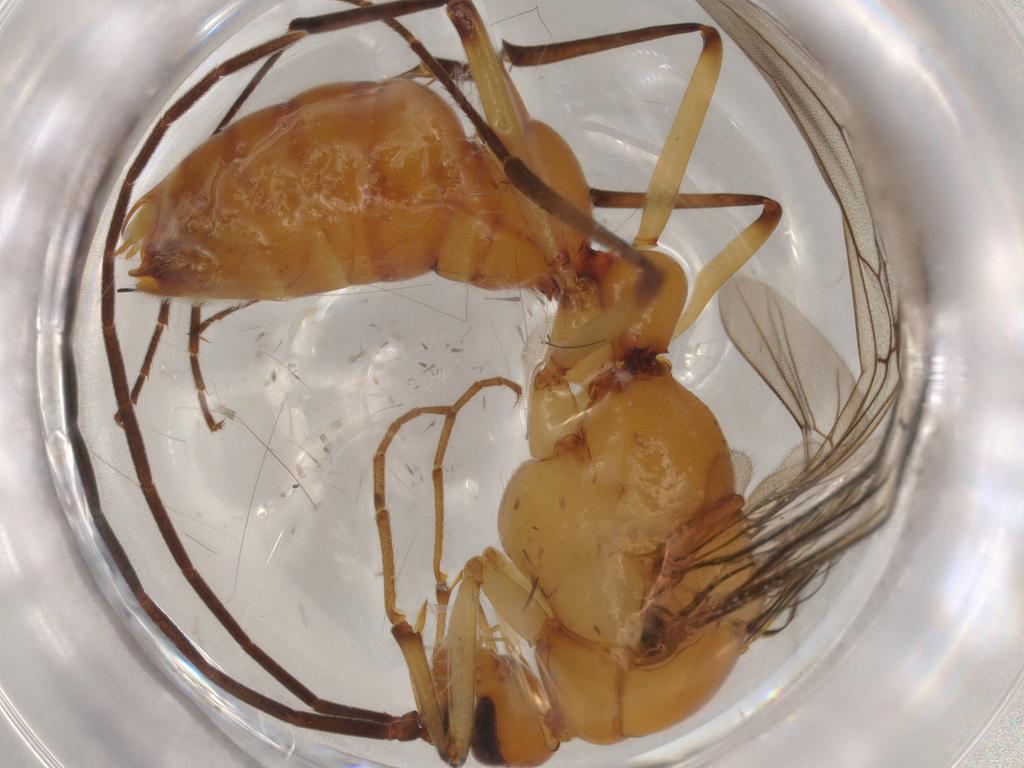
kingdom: Animalia
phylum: Arthropoda
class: Insecta
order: Hymenoptera
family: Formicidae
